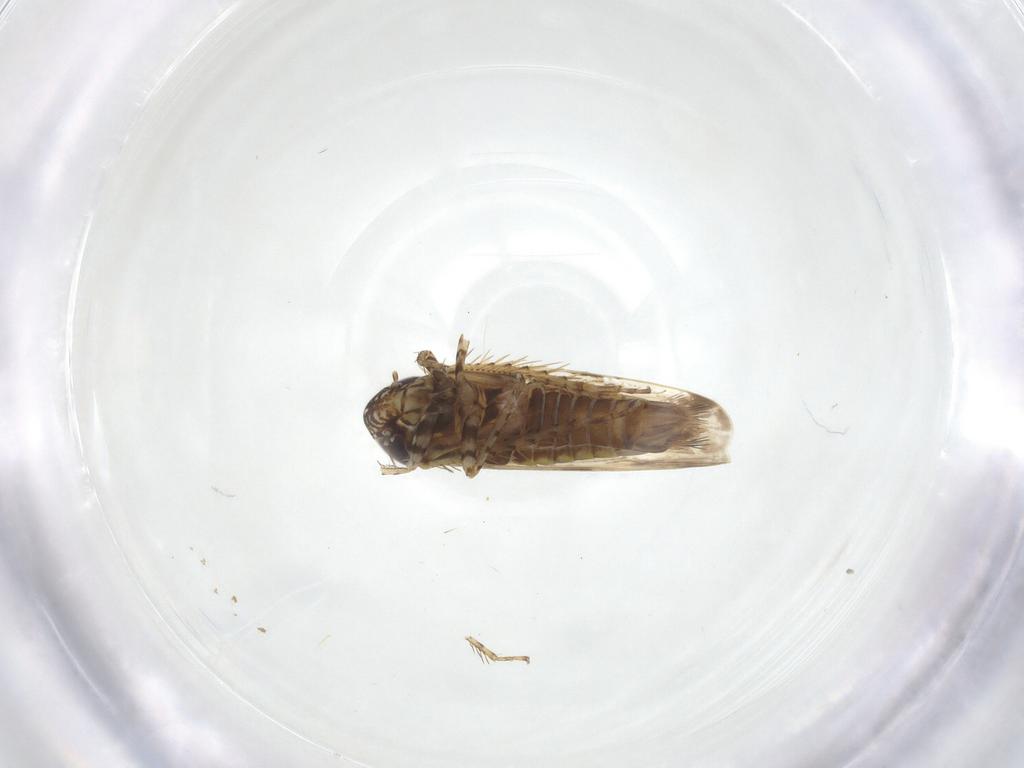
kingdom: Animalia
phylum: Arthropoda
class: Insecta
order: Hemiptera
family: Cicadellidae
